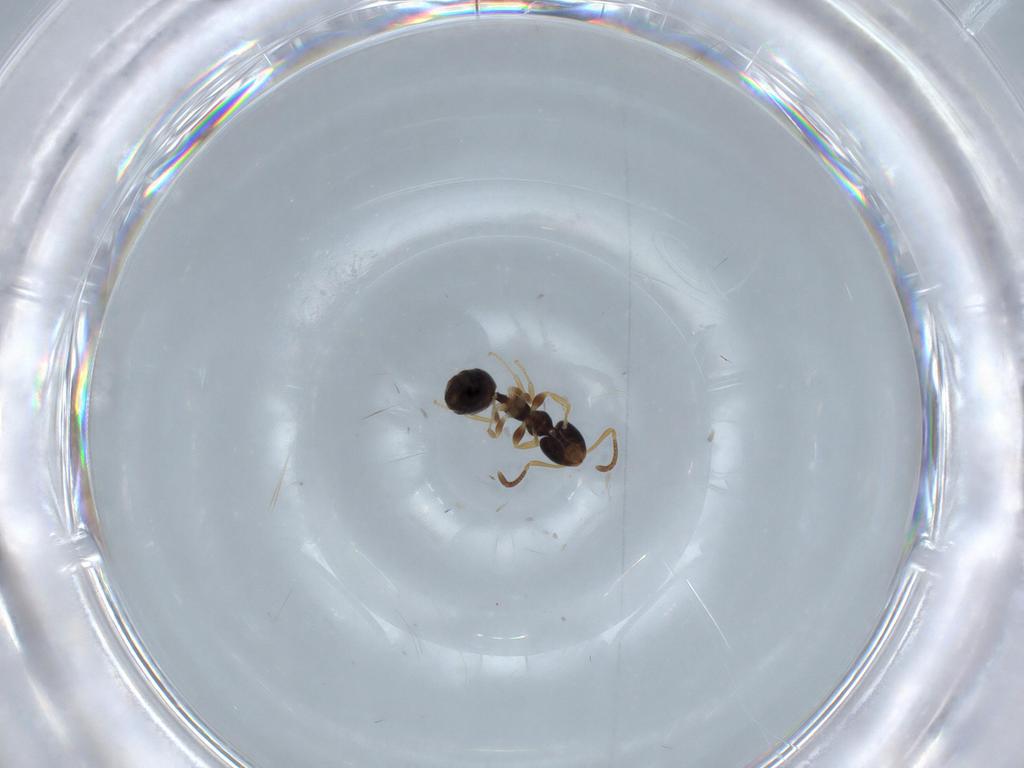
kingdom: Animalia
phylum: Arthropoda
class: Insecta
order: Hymenoptera
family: Formicidae
